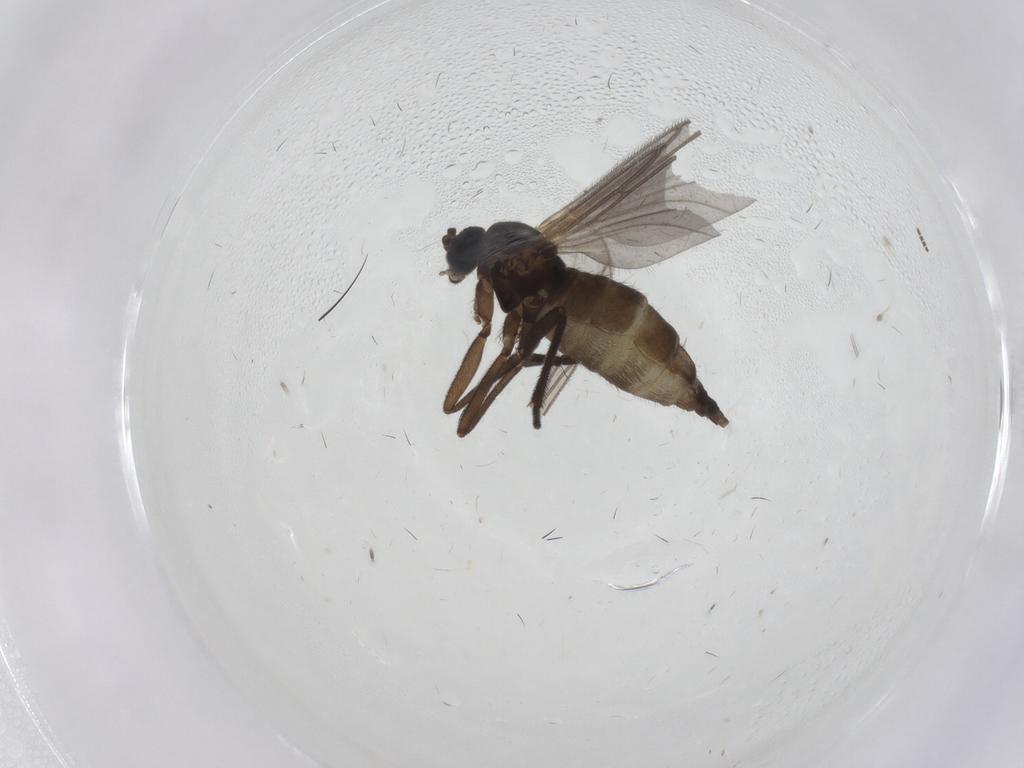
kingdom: Animalia
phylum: Arthropoda
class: Insecta
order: Diptera
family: Sciaridae
